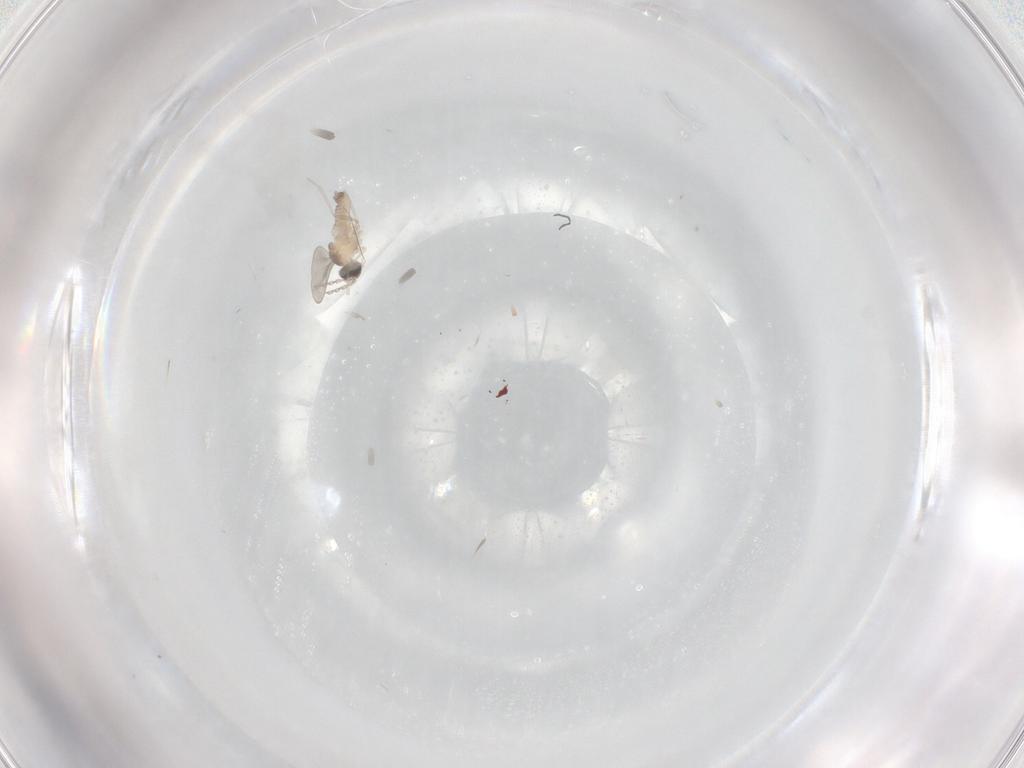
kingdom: Animalia
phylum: Arthropoda
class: Insecta
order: Diptera
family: Cecidomyiidae
